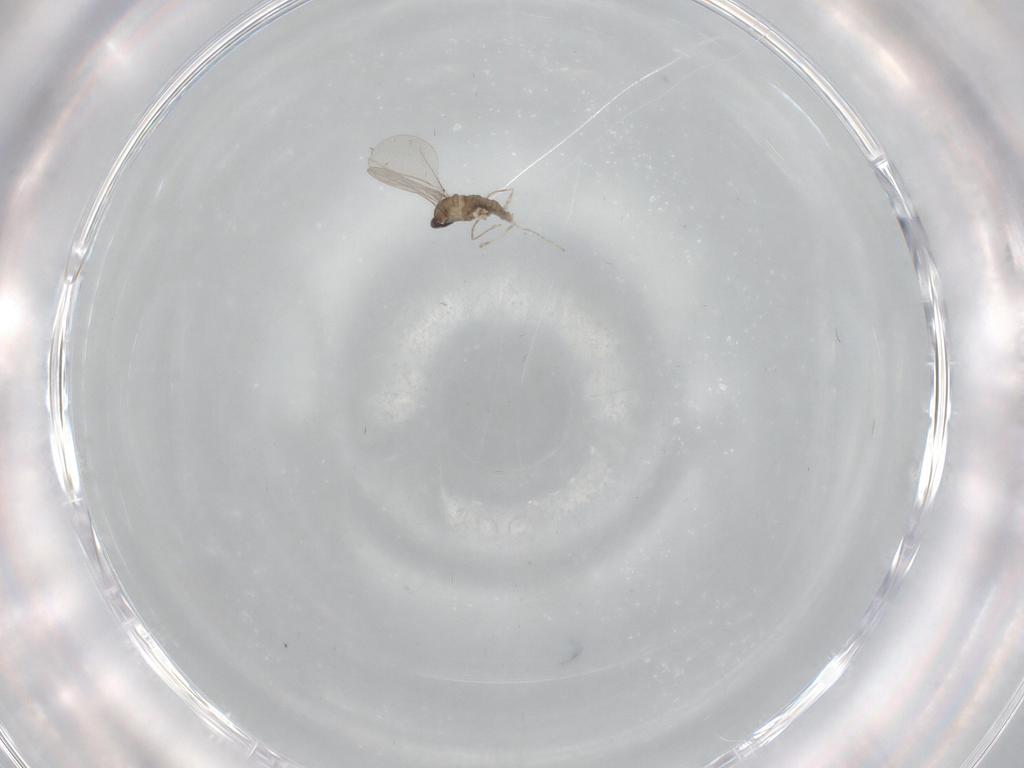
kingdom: Animalia
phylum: Arthropoda
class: Insecta
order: Diptera
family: Cecidomyiidae
